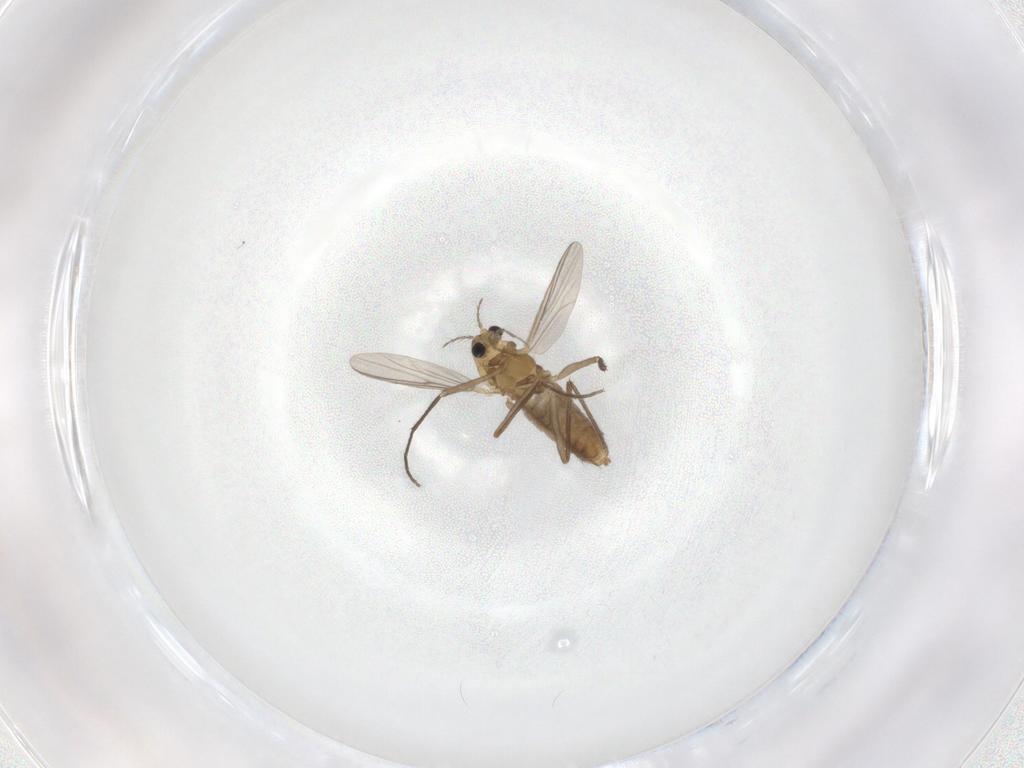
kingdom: Animalia
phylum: Arthropoda
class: Insecta
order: Diptera
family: Chironomidae
